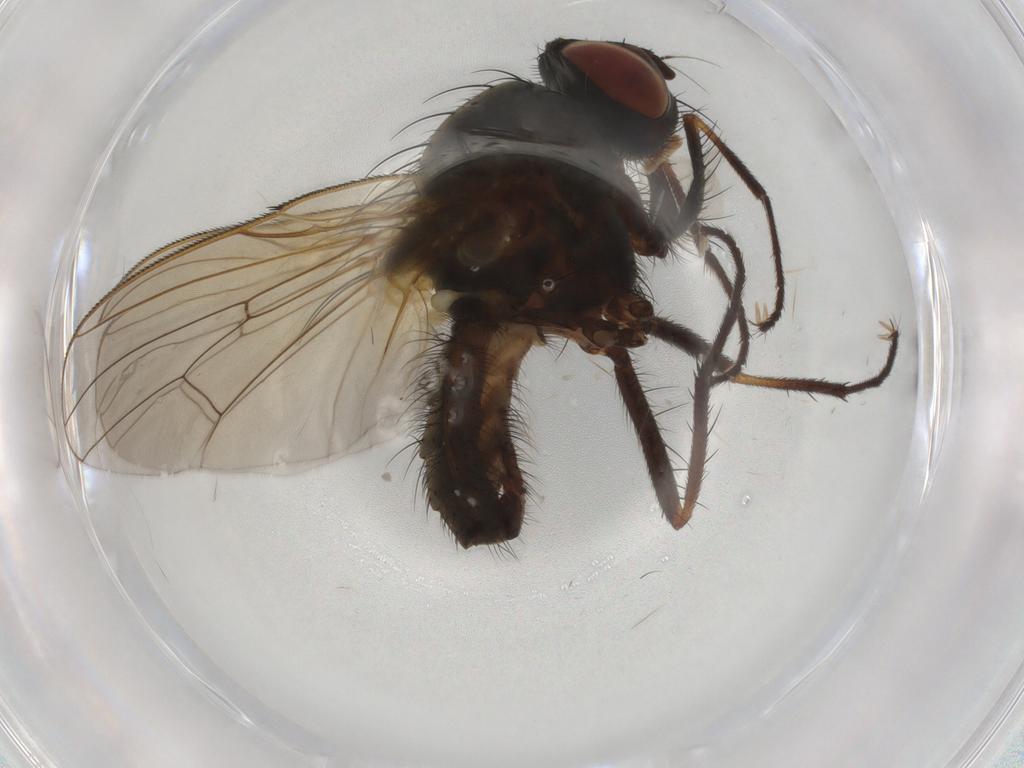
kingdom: Animalia
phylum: Arthropoda
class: Insecta
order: Diptera
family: Anthomyiidae
